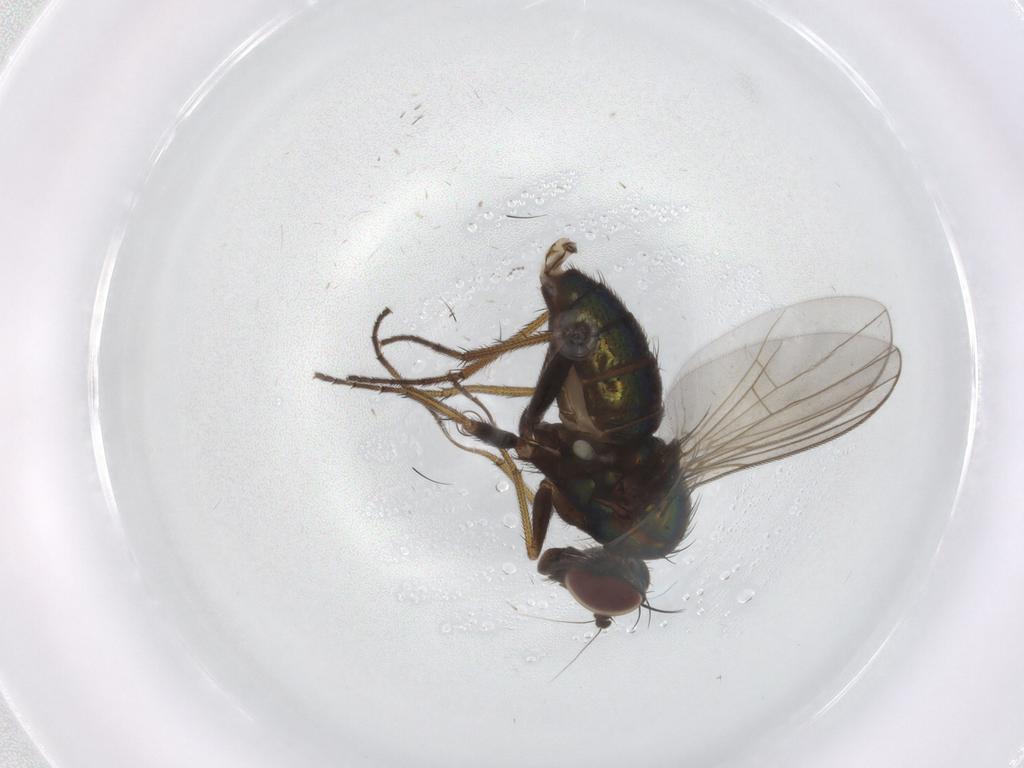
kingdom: Animalia
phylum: Arthropoda
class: Insecta
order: Diptera
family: Dolichopodidae
